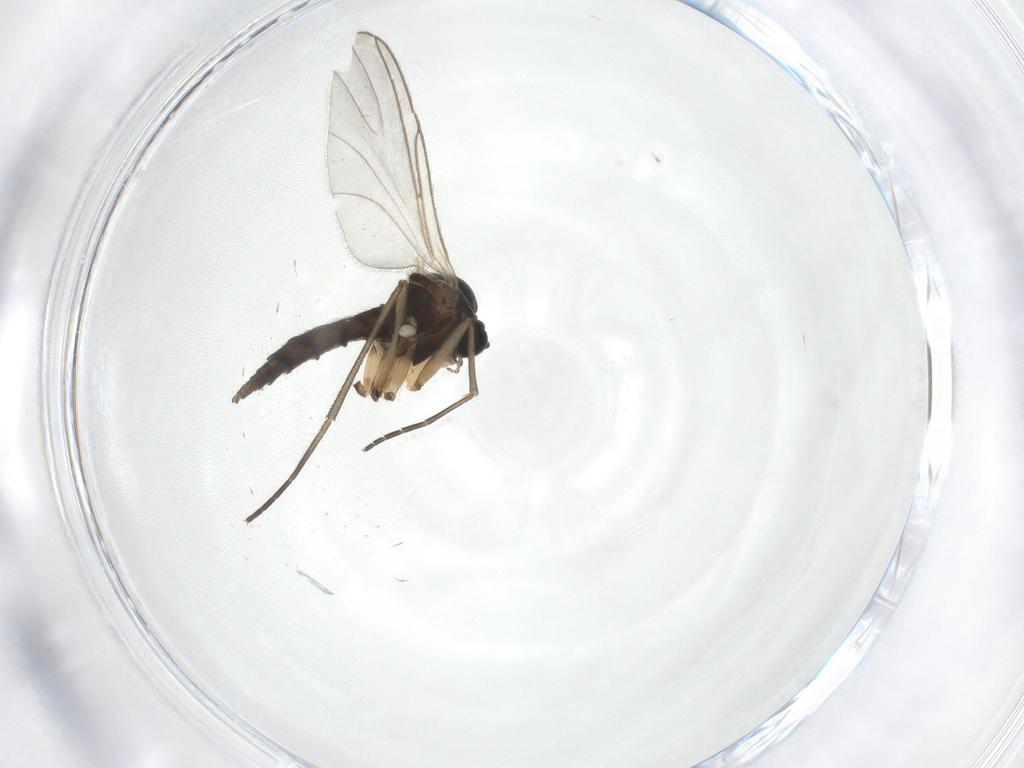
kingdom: Animalia
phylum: Arthropoda
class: Insecta
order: Diptera
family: Sciaridae
